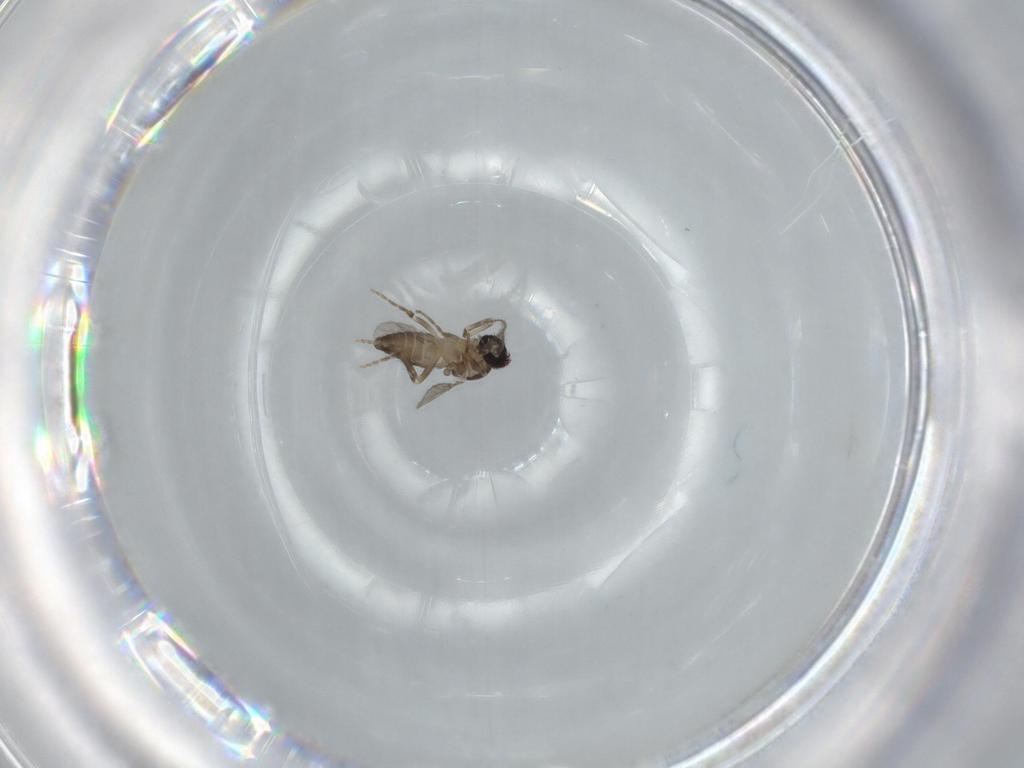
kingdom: Animalia
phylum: Arthropoda
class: Insecta
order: Diptera
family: Ceratopogonidae
